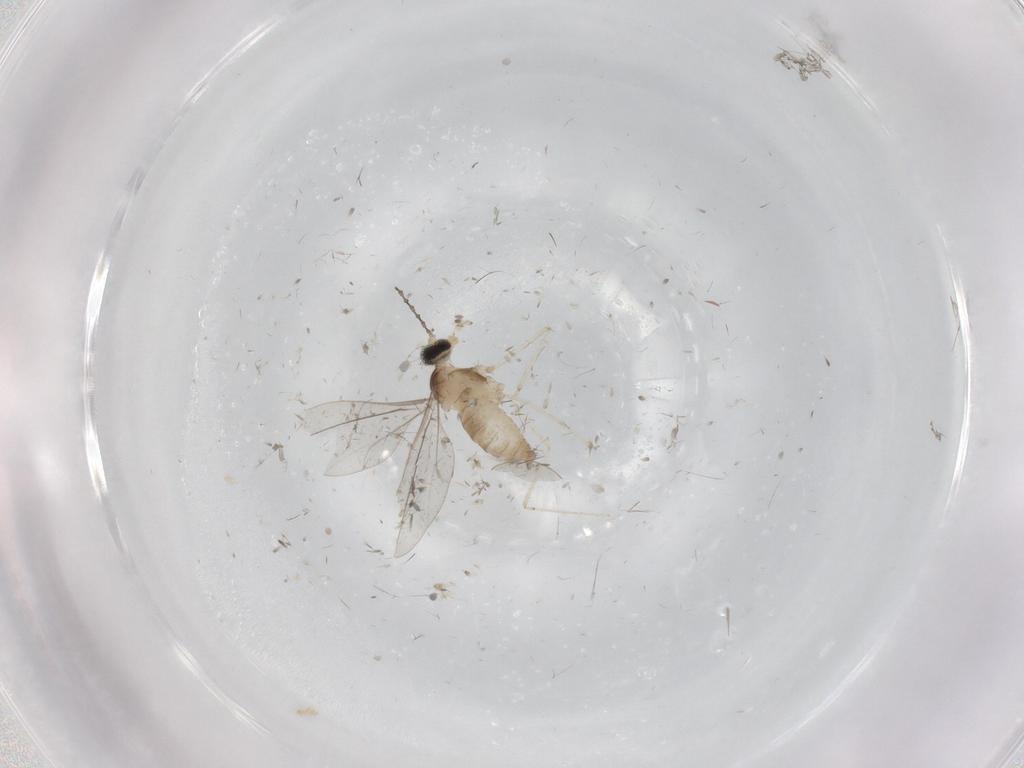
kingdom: Animalia
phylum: Arthropoda
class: Insecta
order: Diptera
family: Cecidomyiidae
